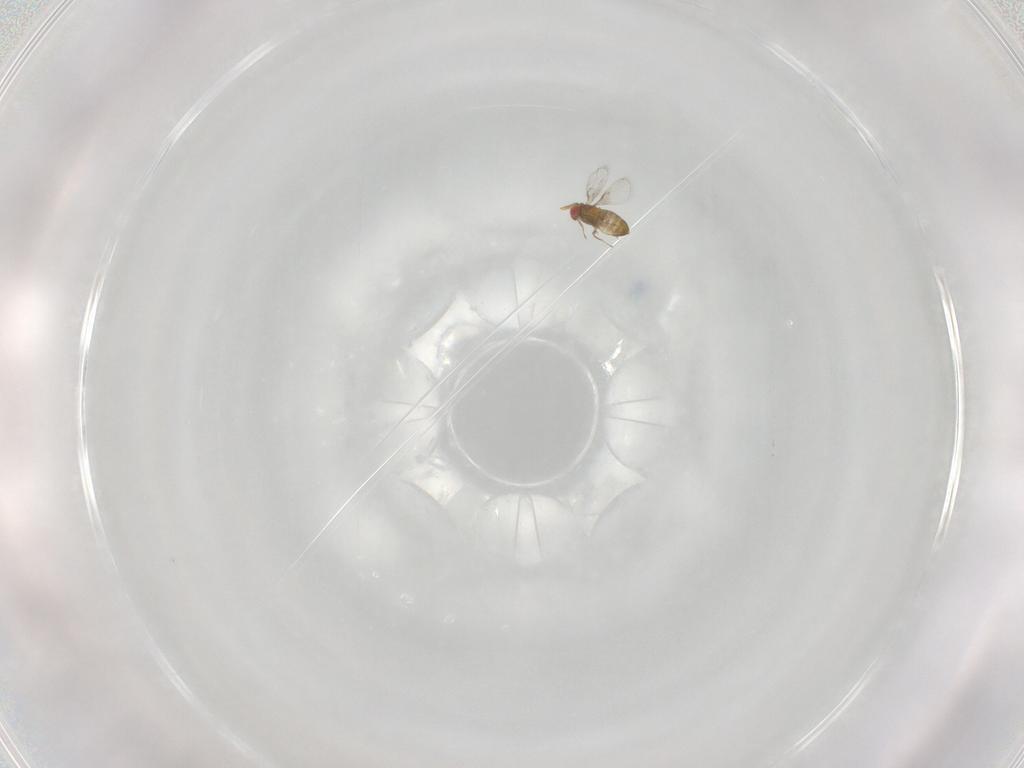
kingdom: Animalia
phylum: Arthropoda
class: Insecta
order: Hymenoptera
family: Trichogrammatidae
